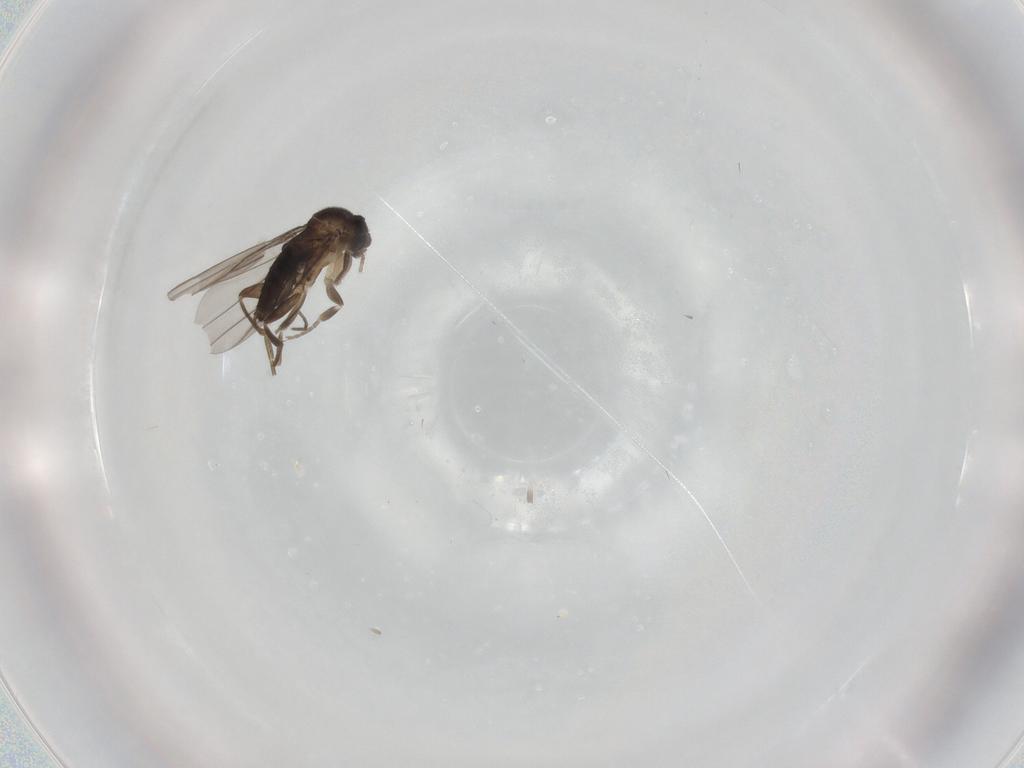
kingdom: Animalia
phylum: Arthropoda
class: Insecta
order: Diptera
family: Phoridae
